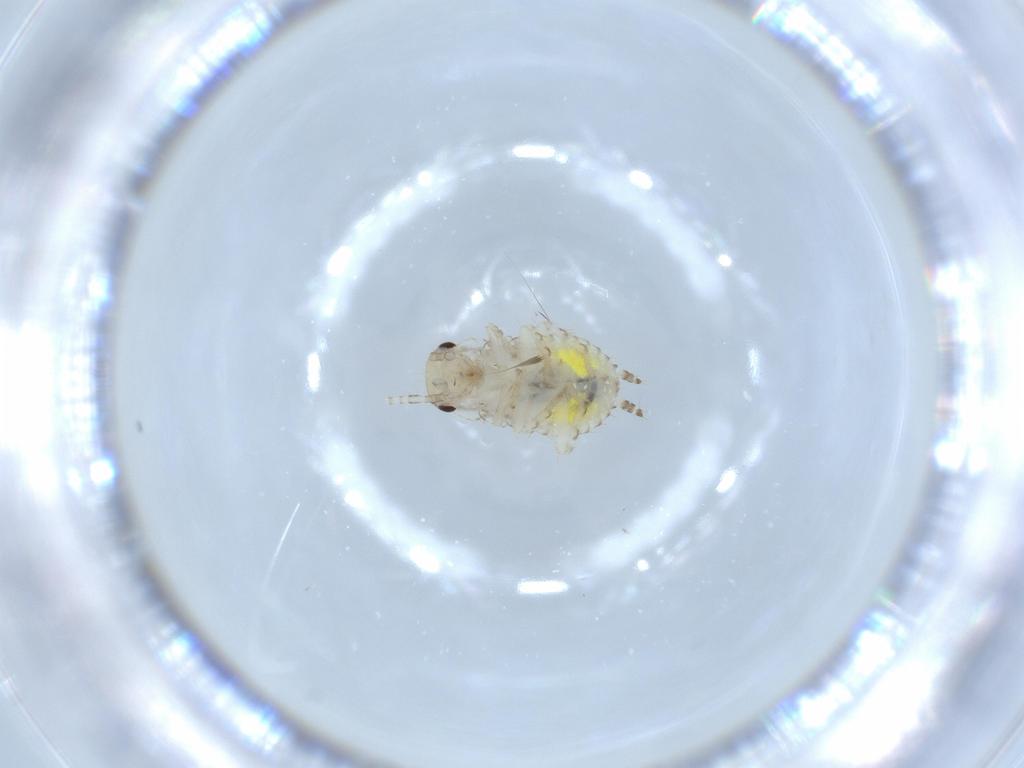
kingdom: Animalia
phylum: Arthropoda
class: Insecta
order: Blattodea
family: Ectobiidae
